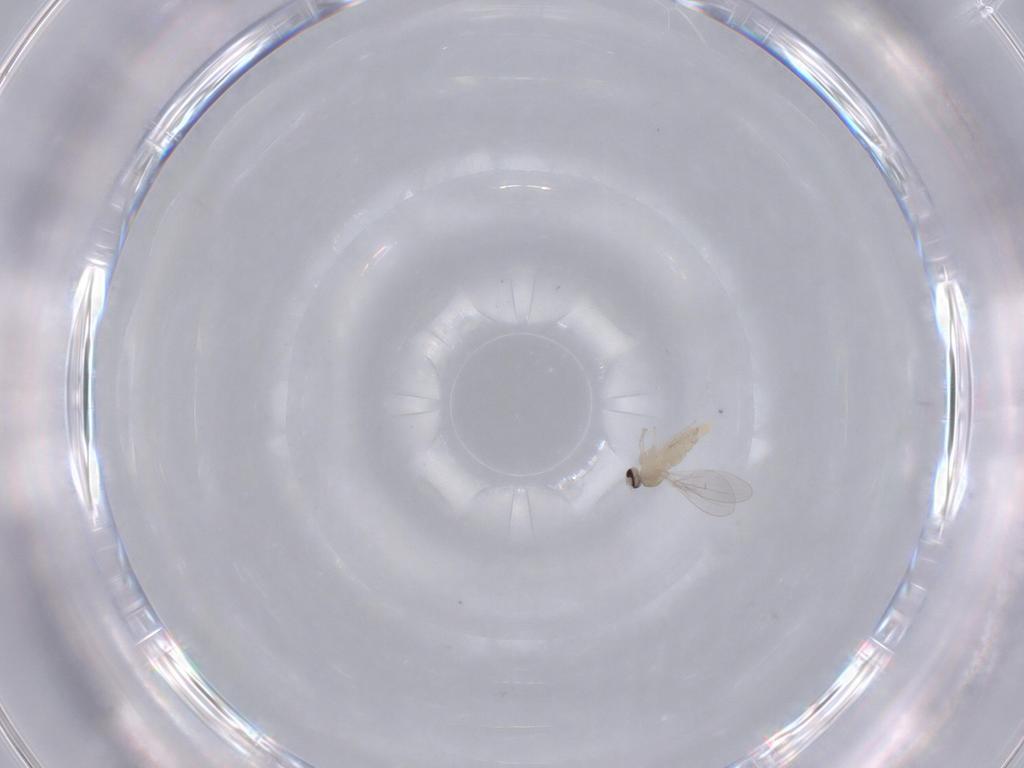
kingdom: Animalia
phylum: Arthropoda
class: Insecta
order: Diptera
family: Cecidomyiidae
